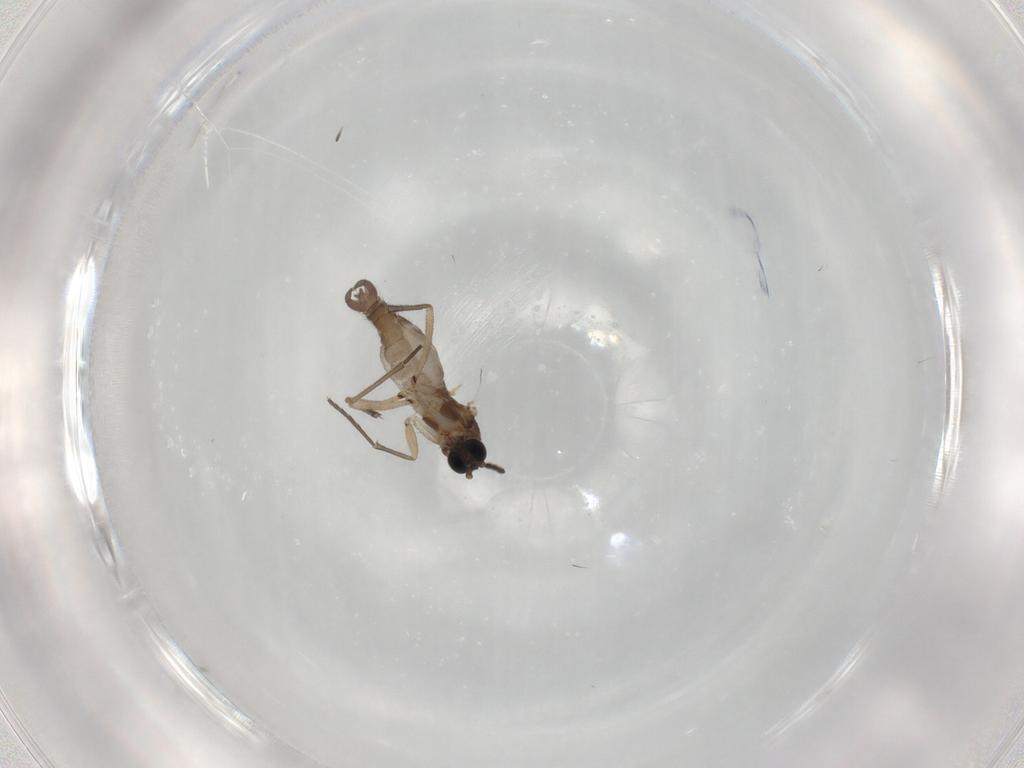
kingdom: Animalia
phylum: Arthropoda
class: Insecta
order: Diptera
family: Sciaridae
